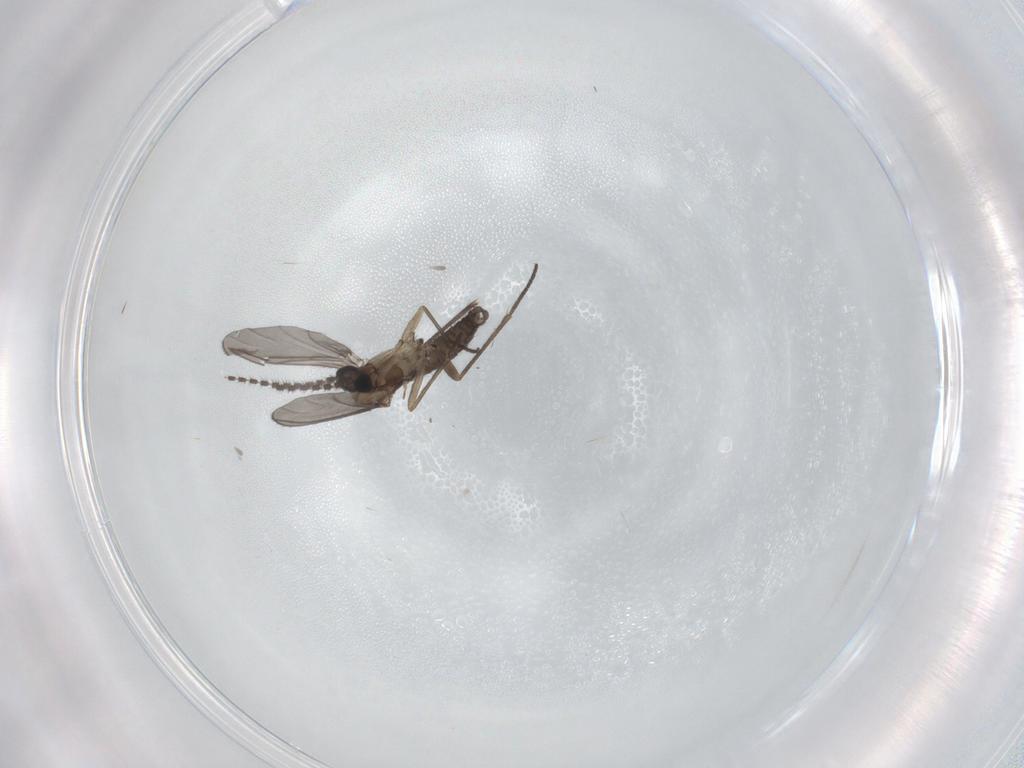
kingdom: Animalia
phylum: Arthropoda
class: Insecta
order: Diptera
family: Sciaridae
